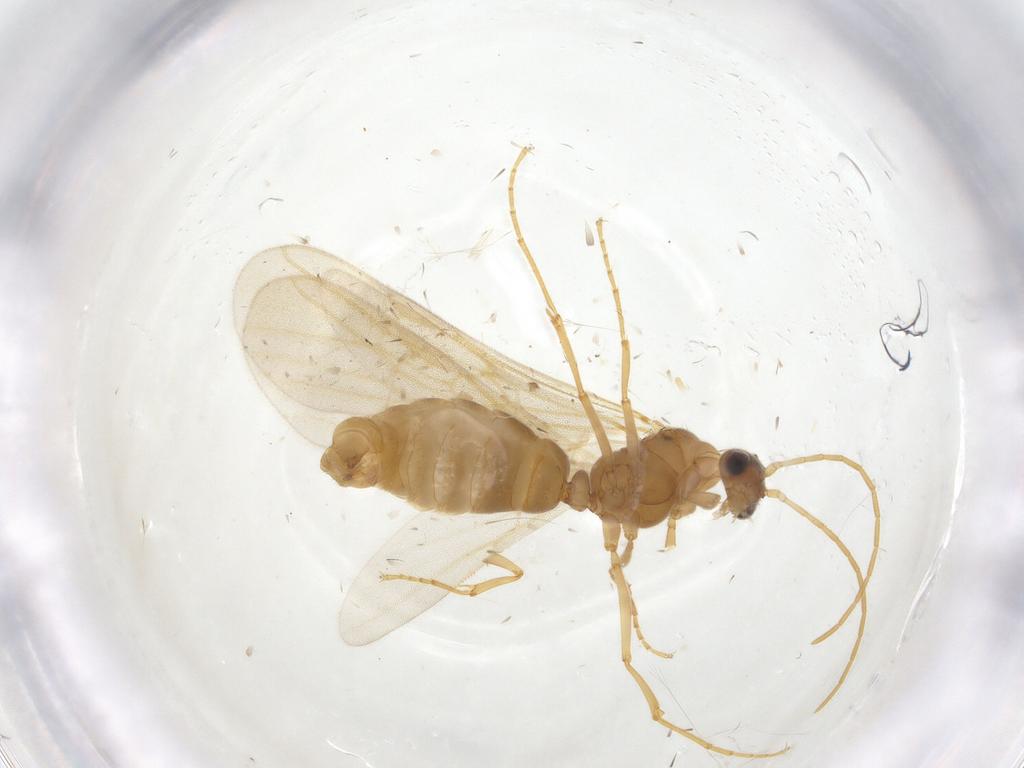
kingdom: Animalia
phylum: Arthropoda
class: Insecta
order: Hymenoptera
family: Formicidae
